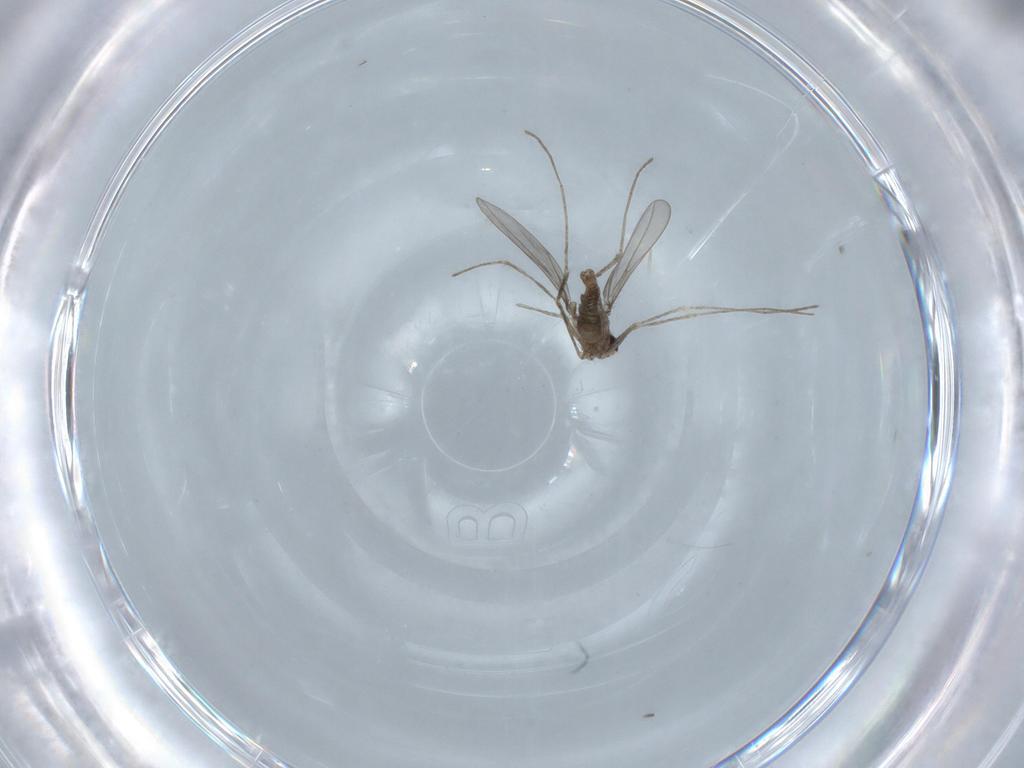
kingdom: Animalia
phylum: Arthropoda
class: Insecta
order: Diptera
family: Cecidomyiidae
